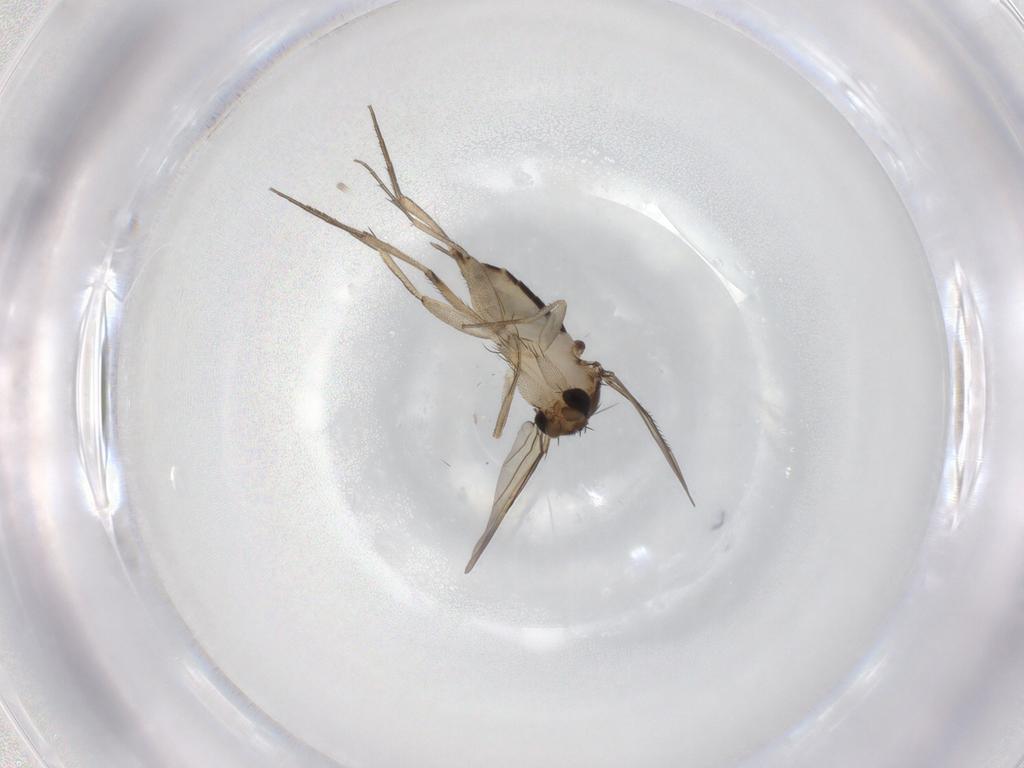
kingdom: Animalia
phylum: Arthropoda
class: Insecta
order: Diptera
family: Phoridae
